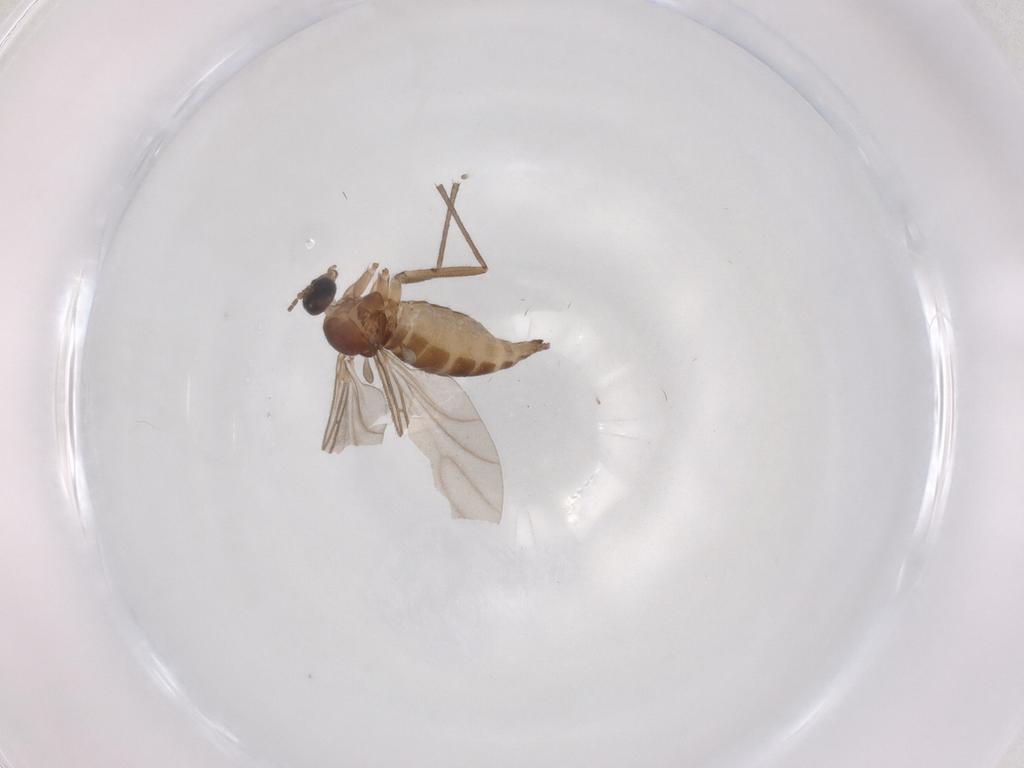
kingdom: Animalia
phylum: Arthropoda
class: Insecta
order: Diptera
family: Sciaridae
